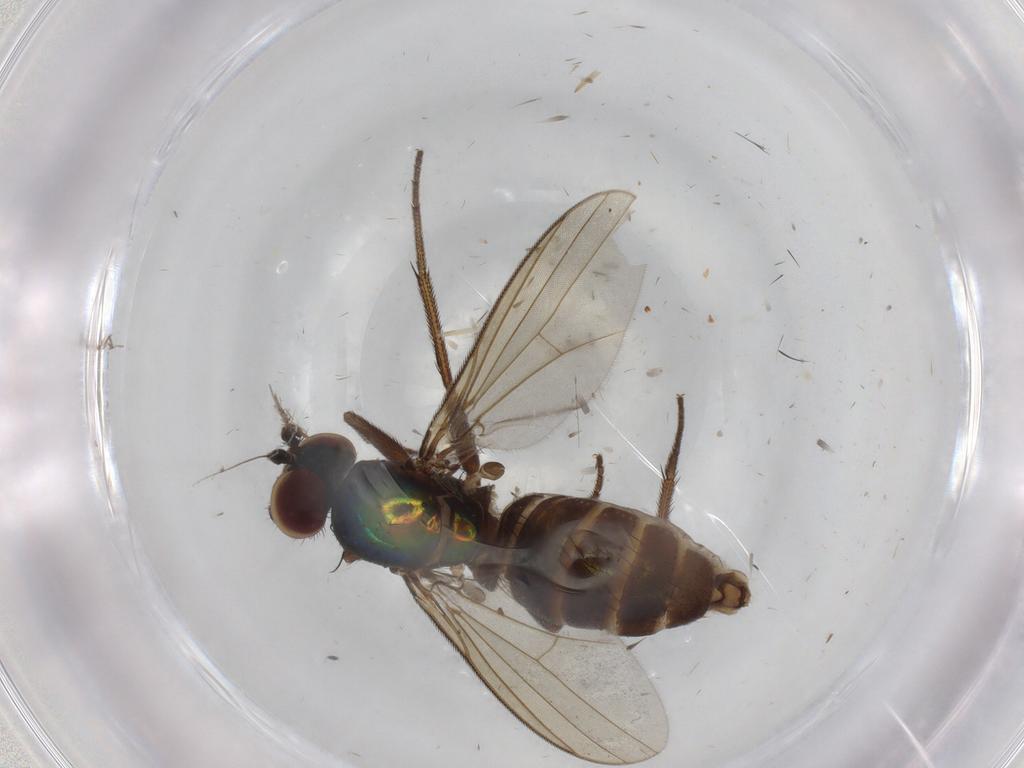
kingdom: Animalia
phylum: Arthropoda
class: Insecta
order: Diptera
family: Dolichopodidae
